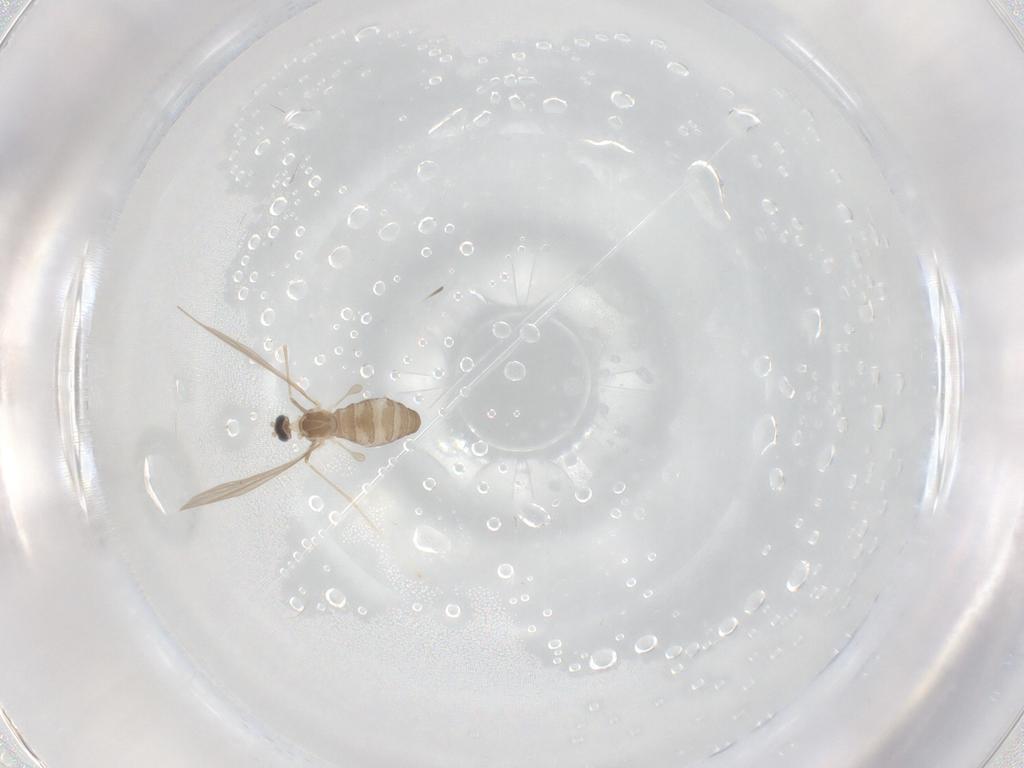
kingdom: Animalia
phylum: Arthropoda
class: Insecta
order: Diptera
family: Cecidomyiidae
